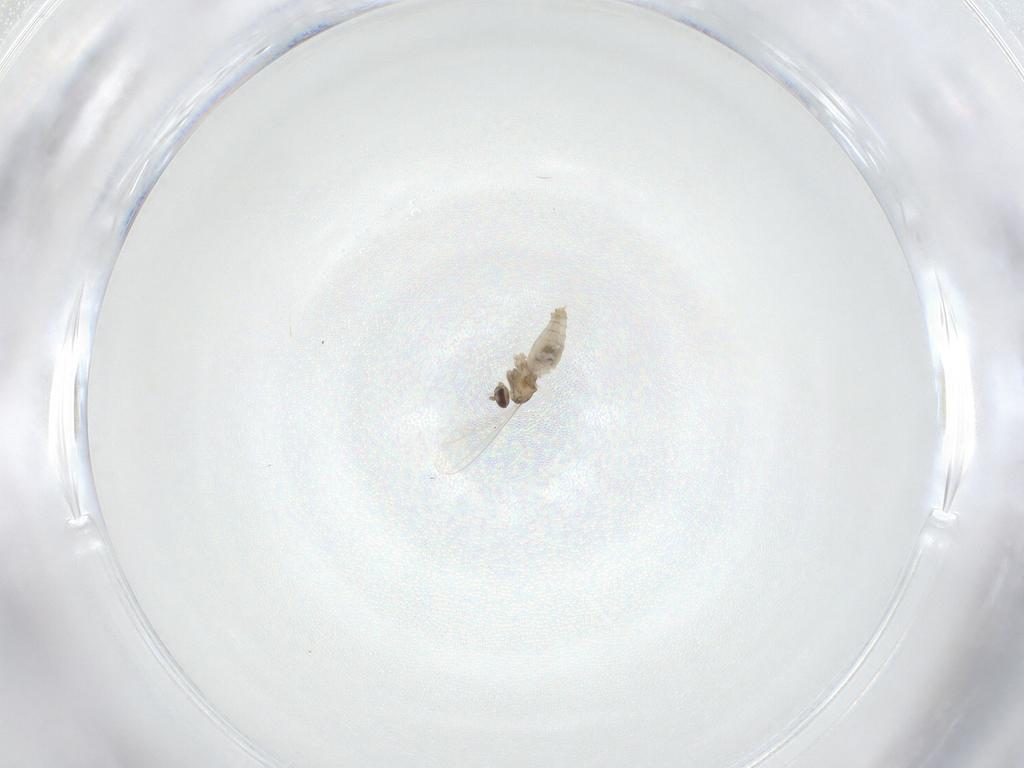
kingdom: Animalia
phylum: Arthropoda
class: Insecta
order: Diptera
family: Cecidomyiidae
